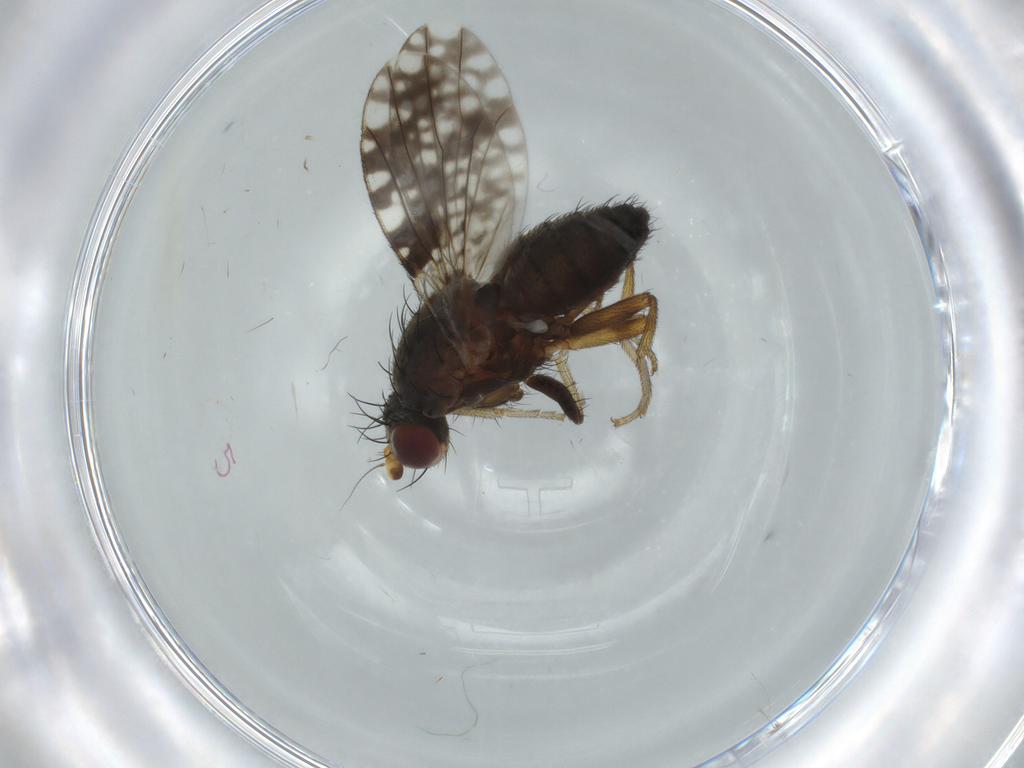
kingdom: Animalia
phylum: Arthropoda
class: Insecta
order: Diptera
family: Tephritidae
